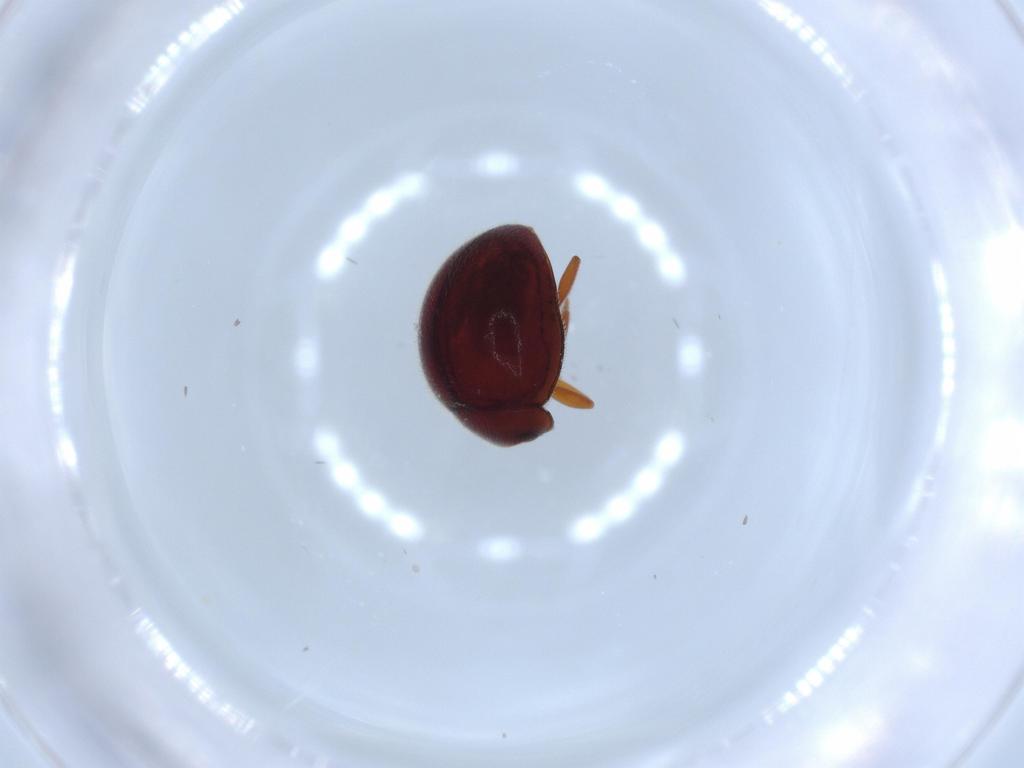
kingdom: Animalia
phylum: Arthropoda
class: Insecta
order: Coleoptera
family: Coccinellidae
